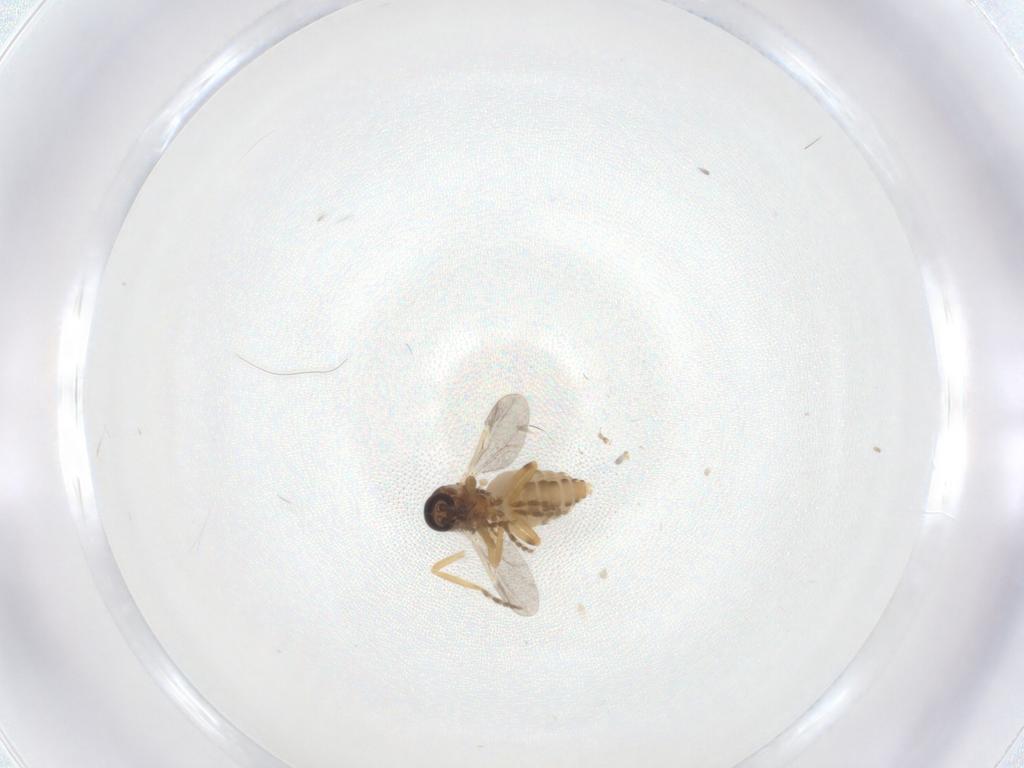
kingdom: Animalia
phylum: Arthropoda
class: Insecta
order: Diptera
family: Ceratopogonidae
